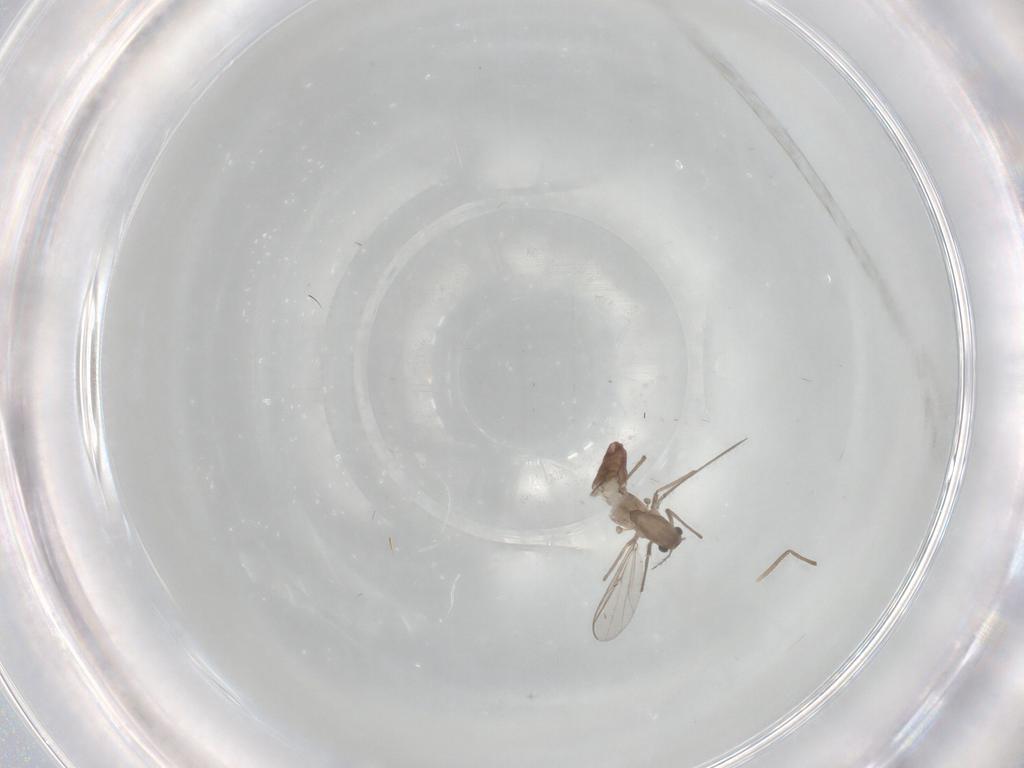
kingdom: Animalia
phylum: Arthropoda
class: Insecta
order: Diptera
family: Chironomidae
